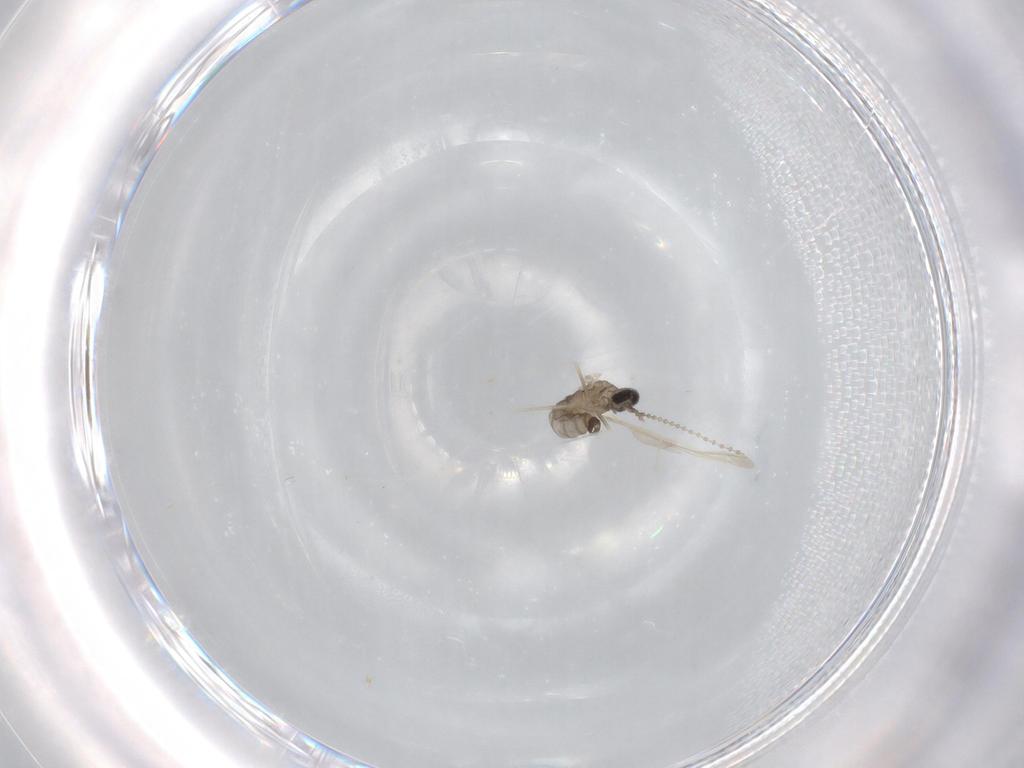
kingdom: Animalia
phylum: Arthropoda
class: Insecta
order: Diptera
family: Cecidomyiidae
